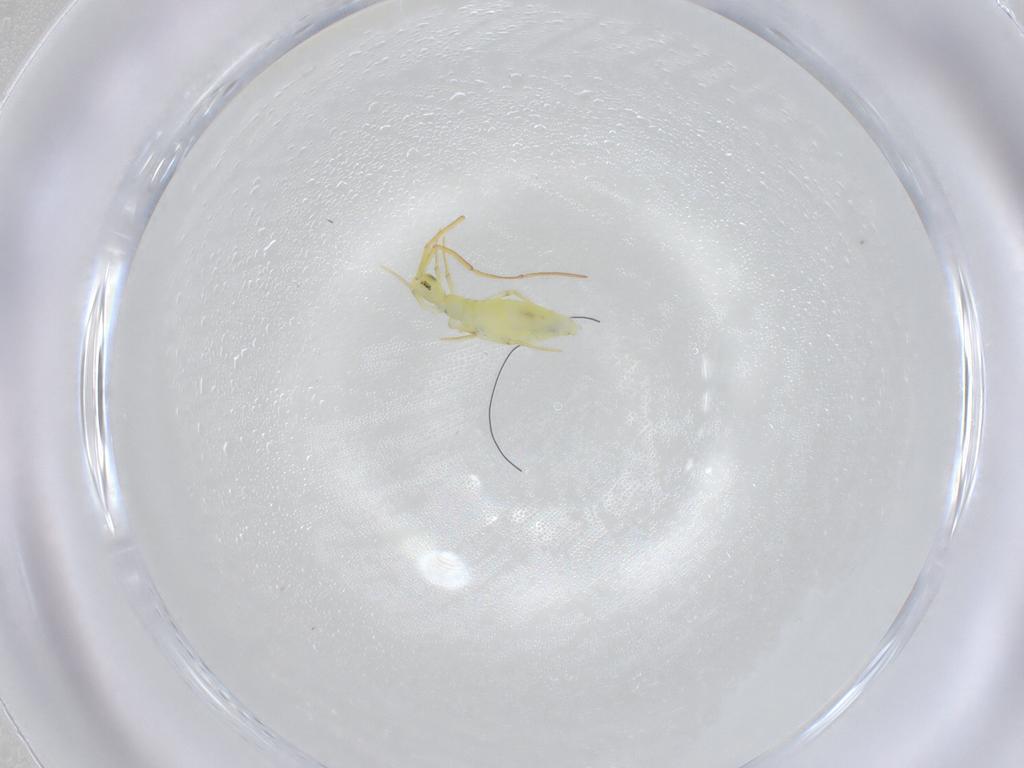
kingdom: Animalia
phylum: Arthropoda
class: Collembola
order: Entomobryomorpha
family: Entomobryidae
